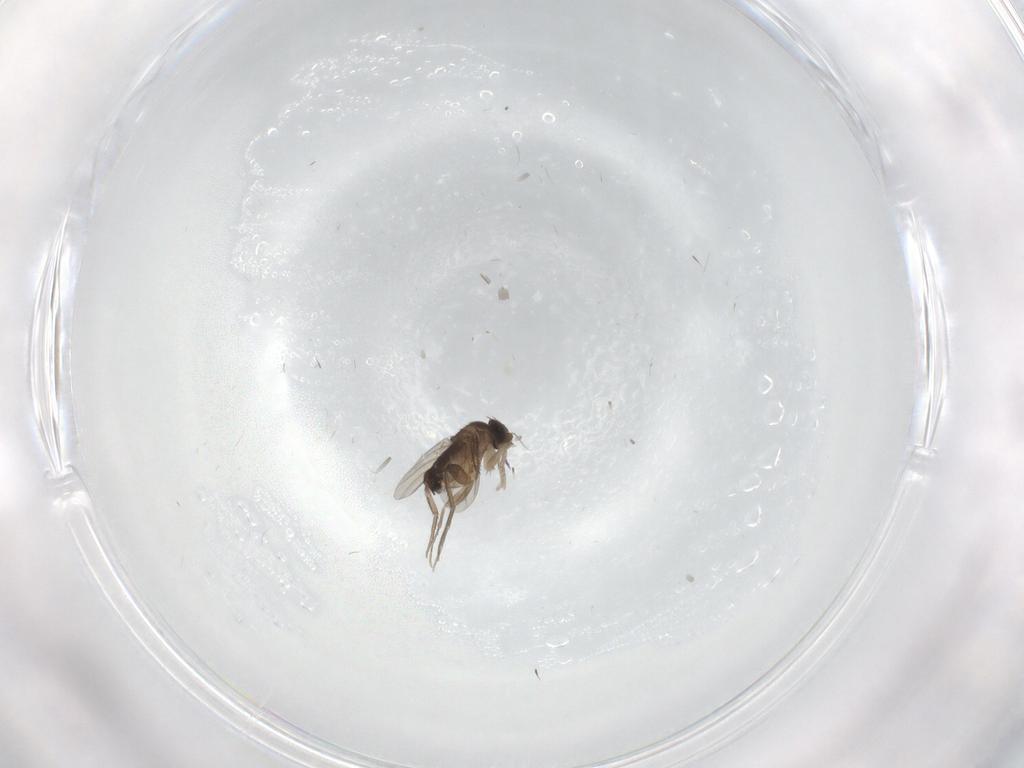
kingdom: Animalia
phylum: Arthropoda
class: Insecta
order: Diptera
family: Phoridae
